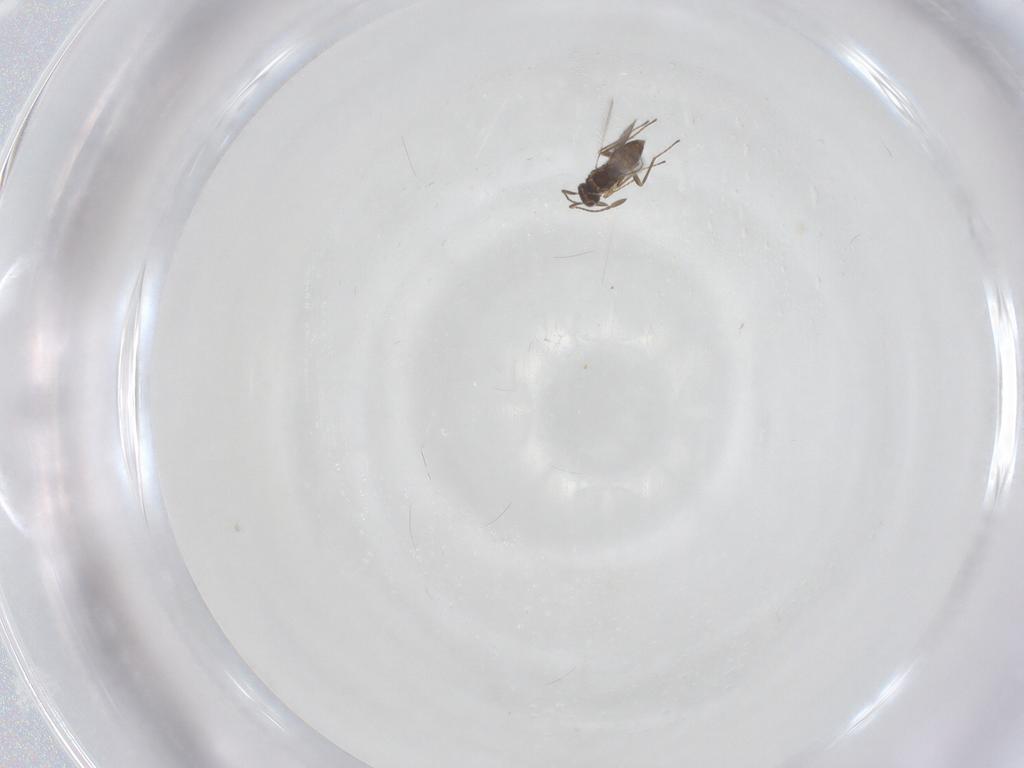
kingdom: Animalia
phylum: Arthropoda
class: Insecta
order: Hymenoptera
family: Mymaridae
